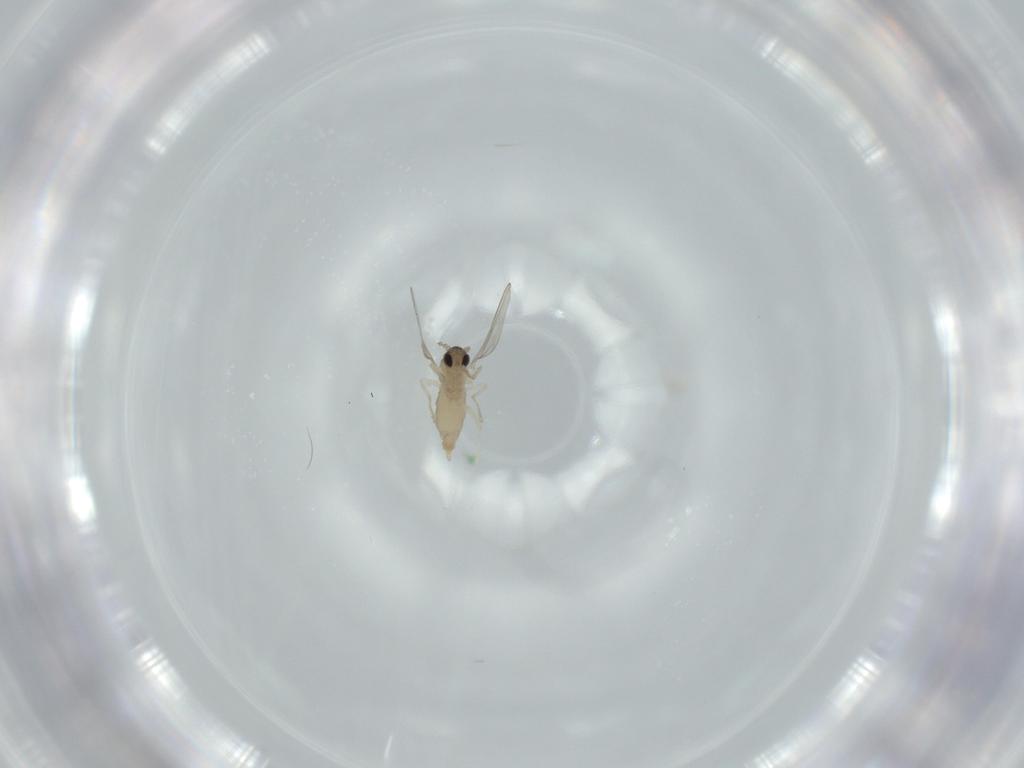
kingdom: Animalia
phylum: Arthropoda
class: Insecta
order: Diptera
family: Cecidomyiidae
